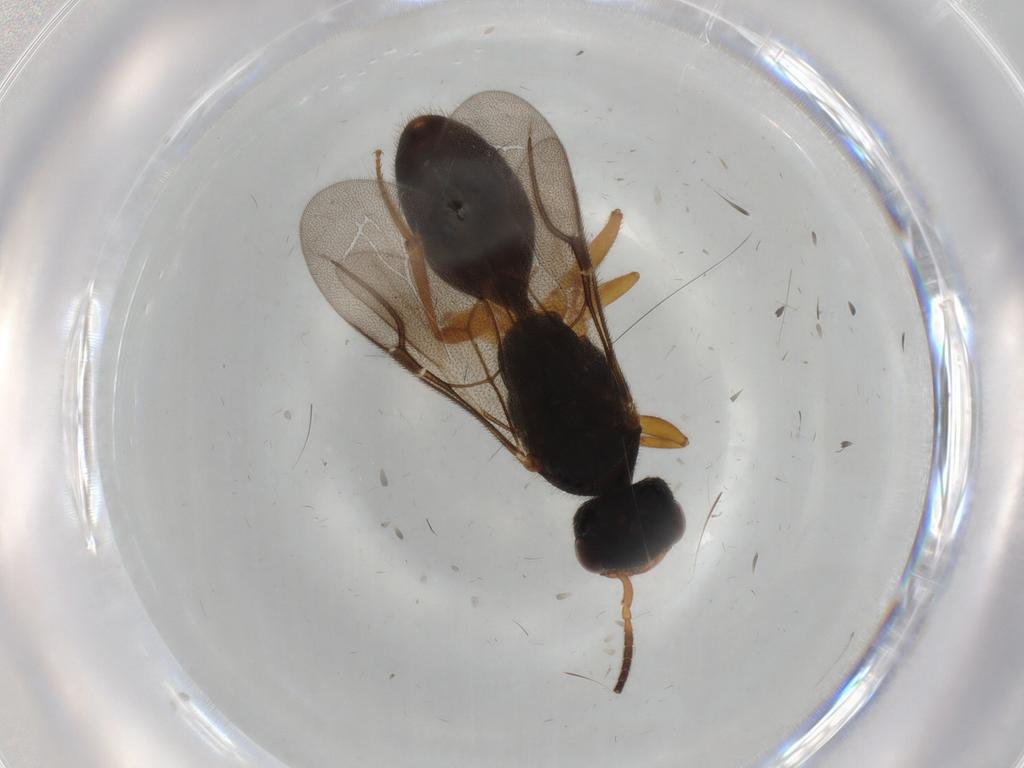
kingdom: Animalia
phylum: Arthropoda
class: Insecta
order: Hymenoptera
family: Bethylidae
